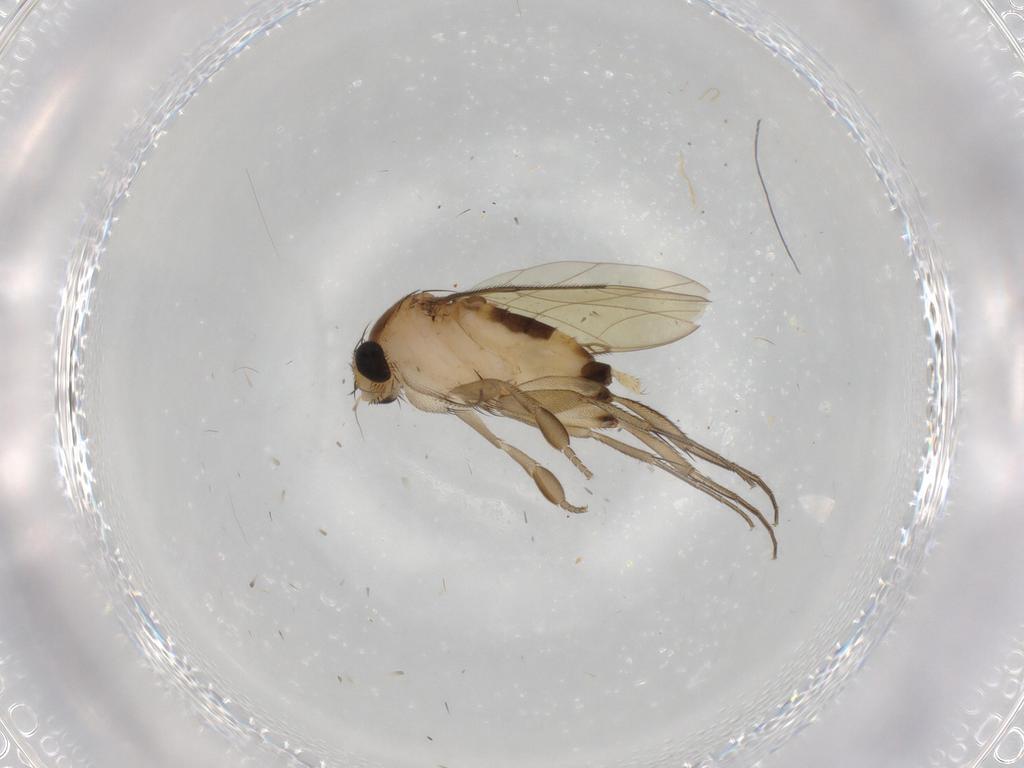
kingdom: Animalia
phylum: Arthropoda
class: Insecta
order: Diptera
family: Phoridae
